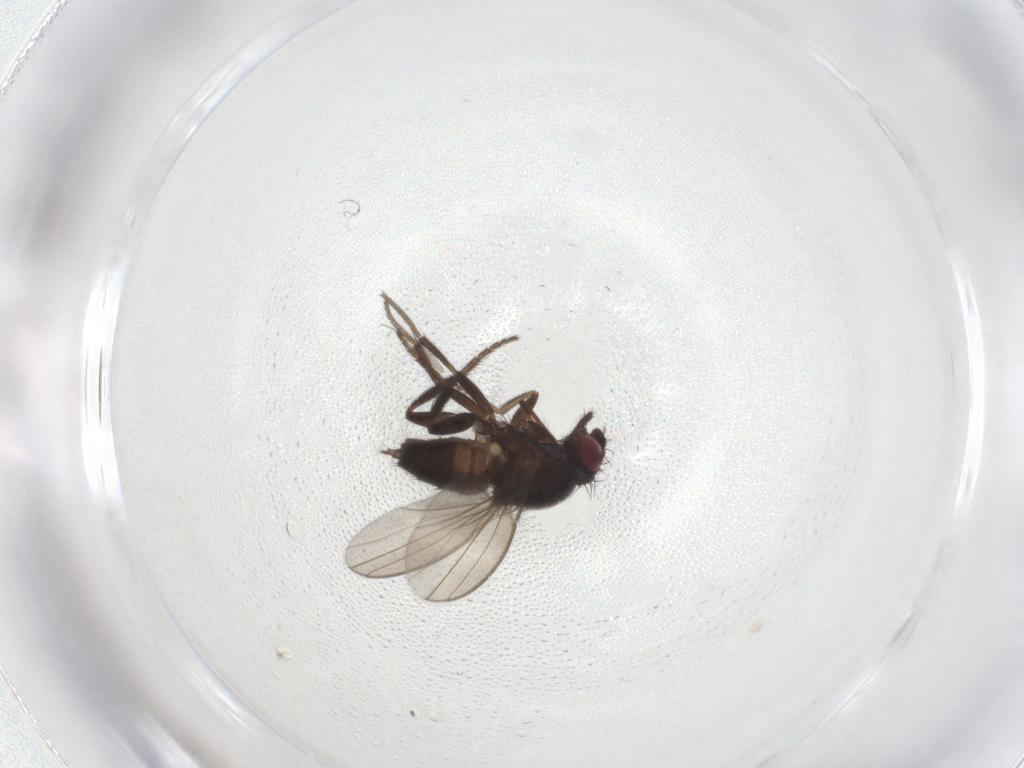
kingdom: Animalia
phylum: Arthropoda
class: Insecta
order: Diptera
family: Milichiidae
